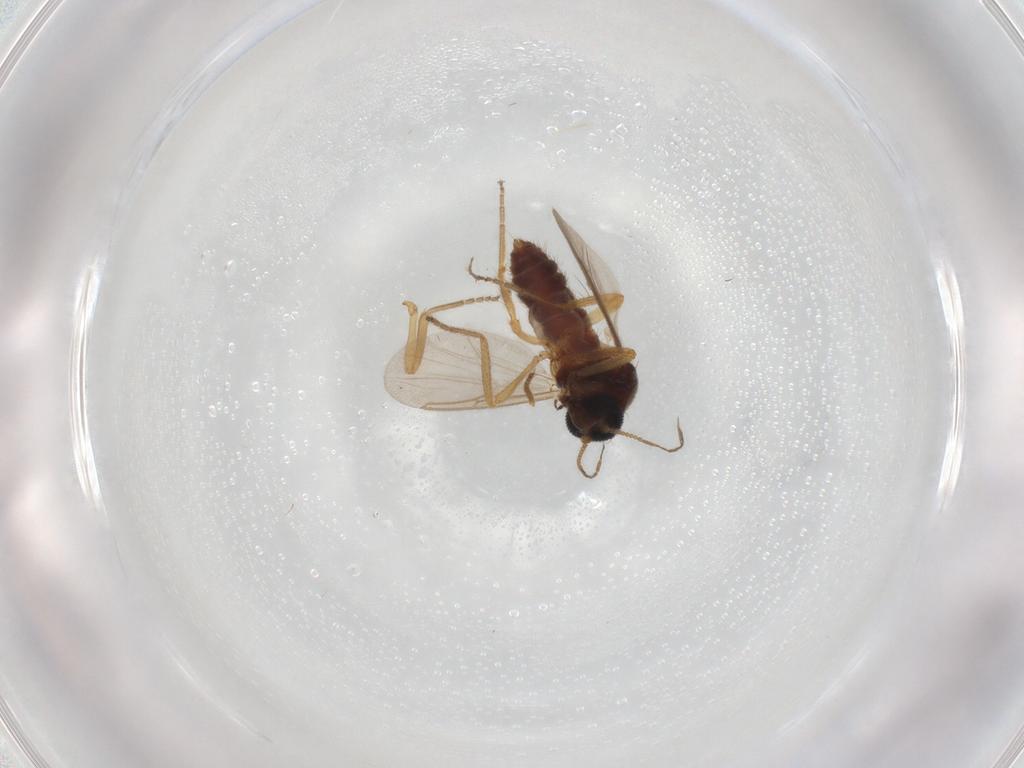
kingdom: Animalia
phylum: Arthropoda
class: Insecta
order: Diptera
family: Ceratopogonidae
